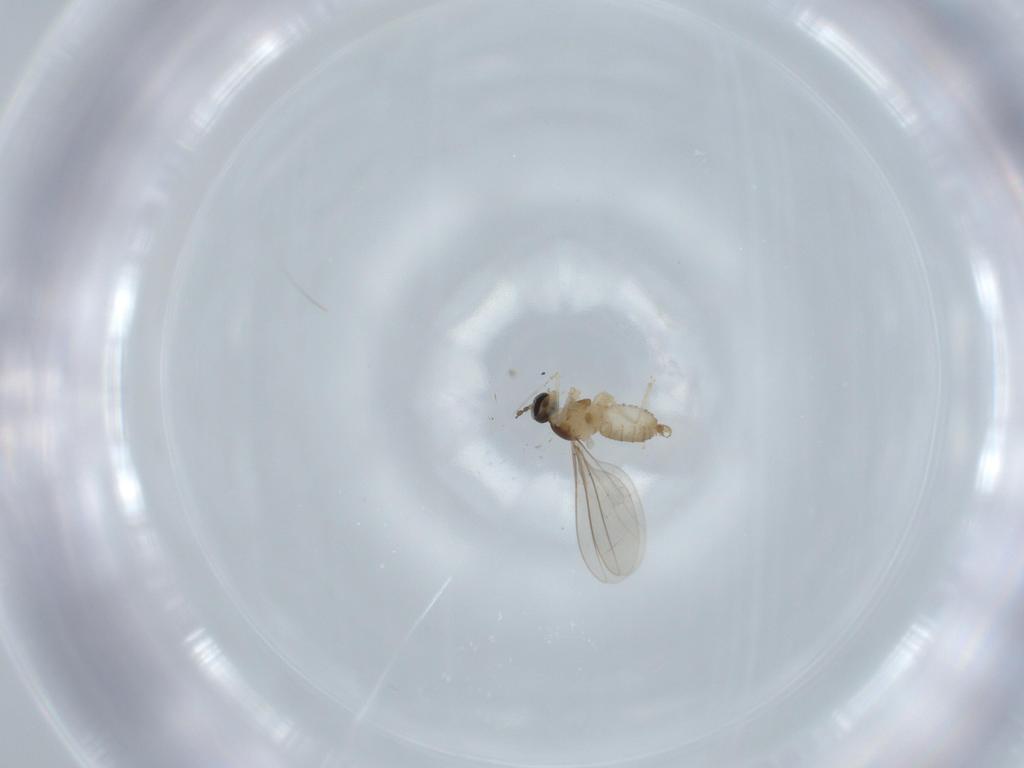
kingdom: Animalia
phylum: Arthropoda
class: Insecta
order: Diptera
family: Cecidomyiidae
